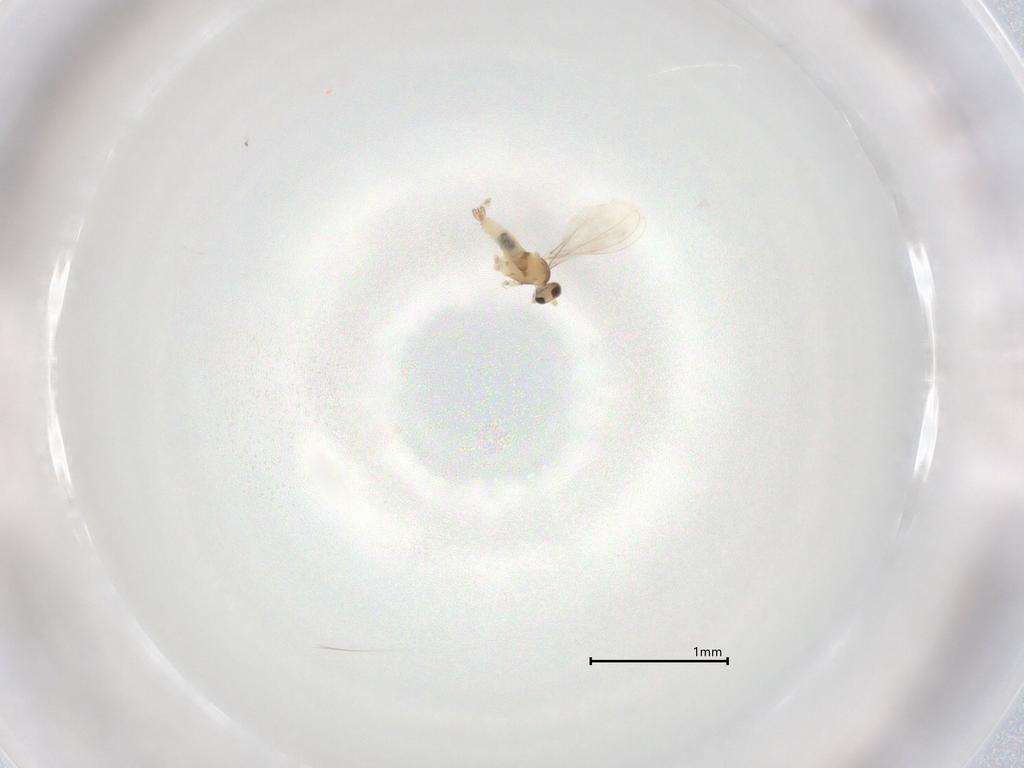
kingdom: Animalia
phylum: Arthropoda
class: Insecta
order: Diptera
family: Cecidomyiidae
